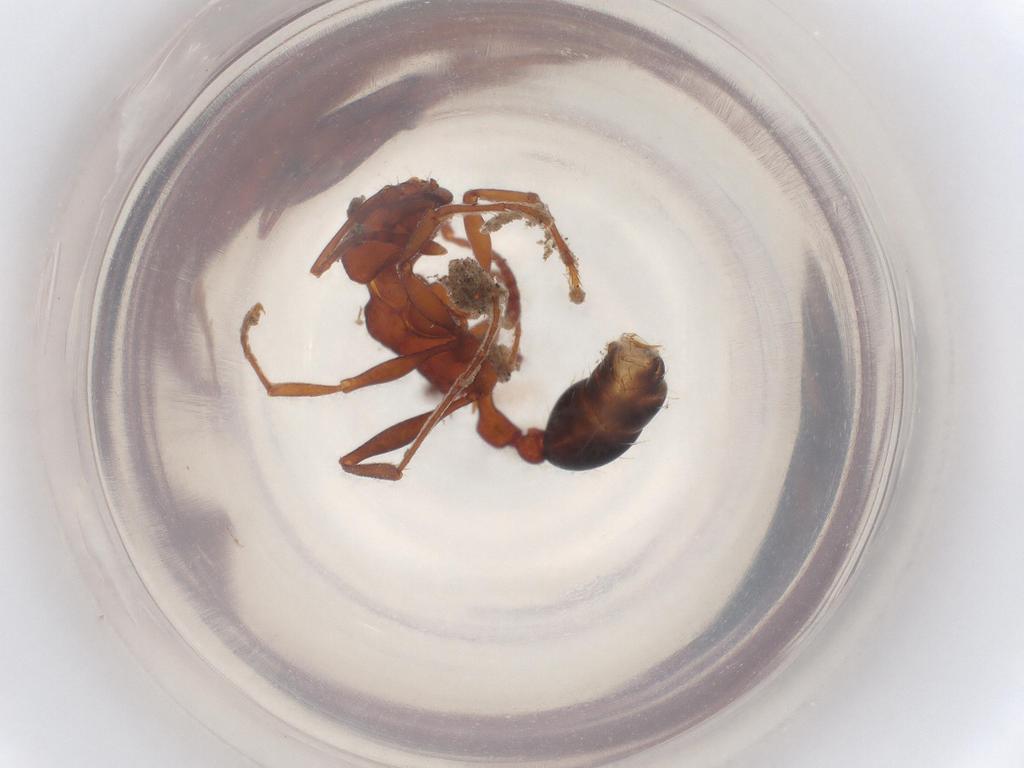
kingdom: Animalia
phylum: Arthropoda
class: Insecta
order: Hymenoptera
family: Formicidae
